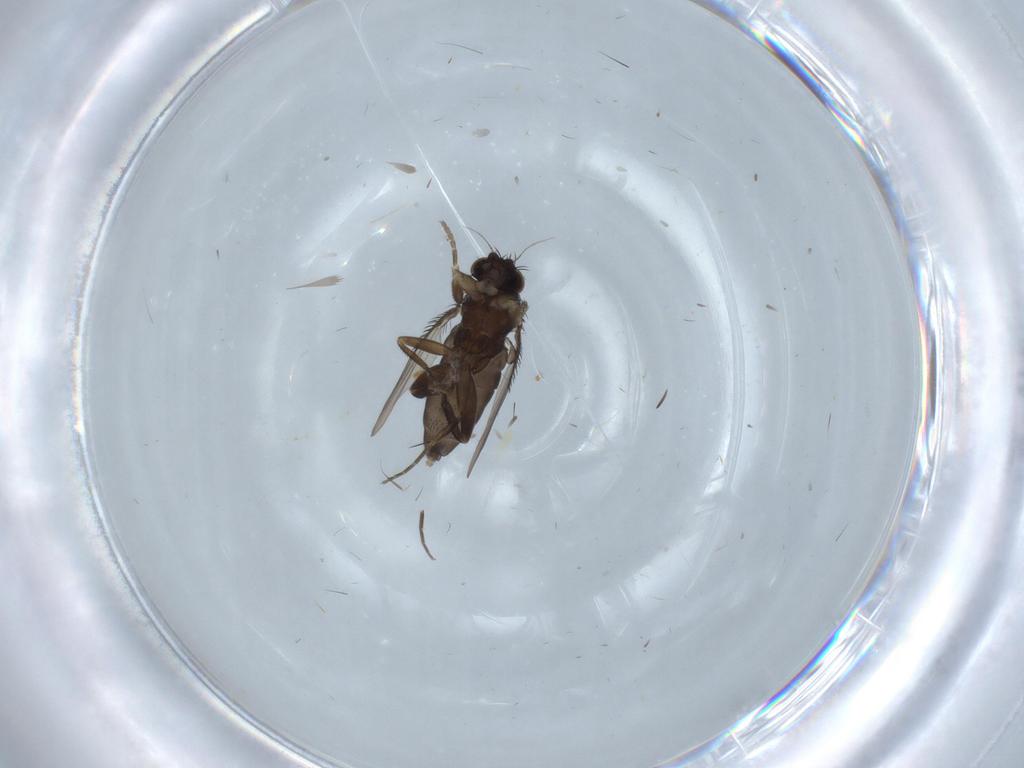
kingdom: Animalia
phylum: Arthropoda
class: Insecta
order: Diptera
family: Phoridae
